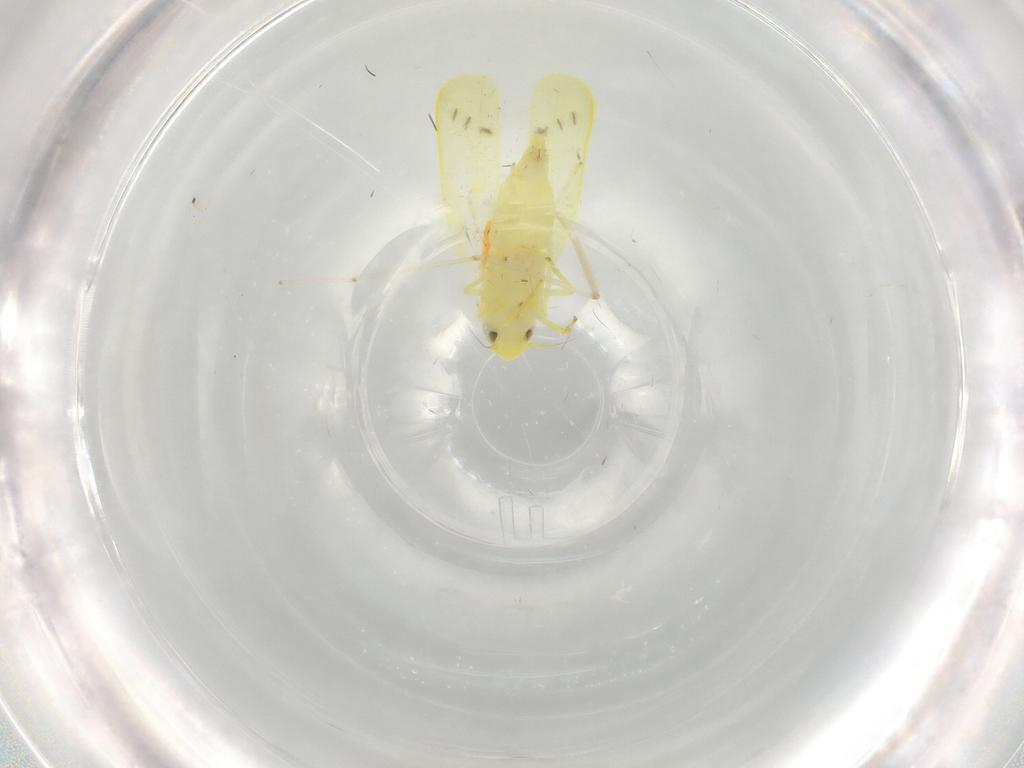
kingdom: Animalia
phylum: Arthropoda
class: Insecta
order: Hemiptera
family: Cicadellidae
